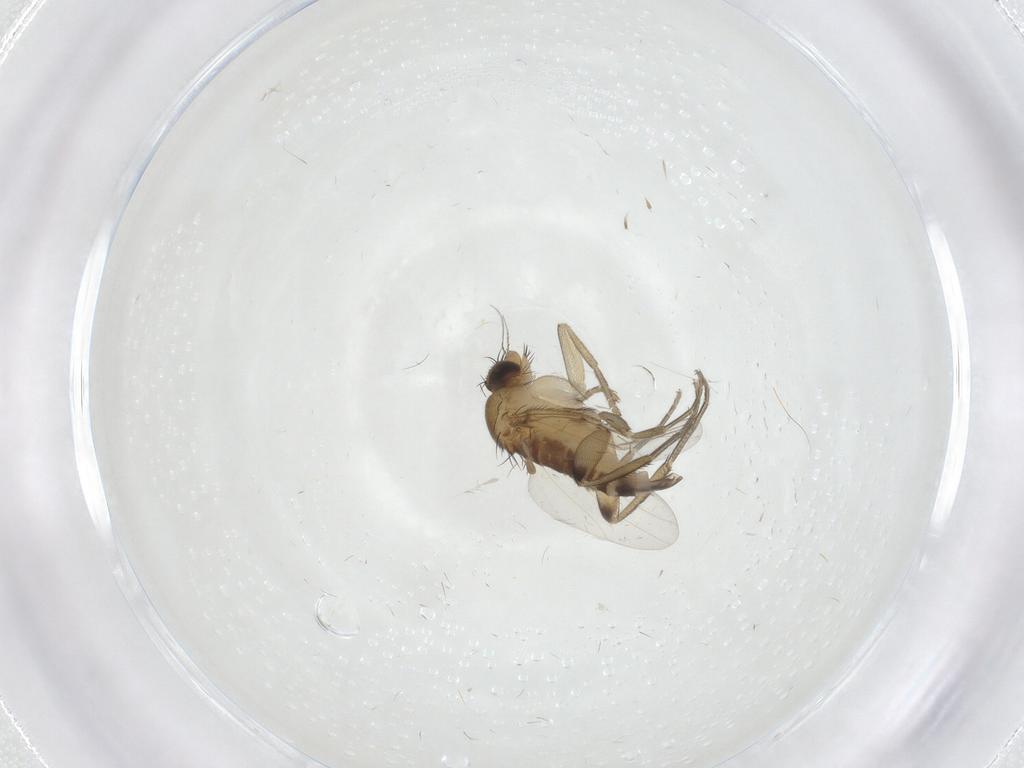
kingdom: Animalia
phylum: Arthropoda
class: Insecta
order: Diptera
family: Phoridae
